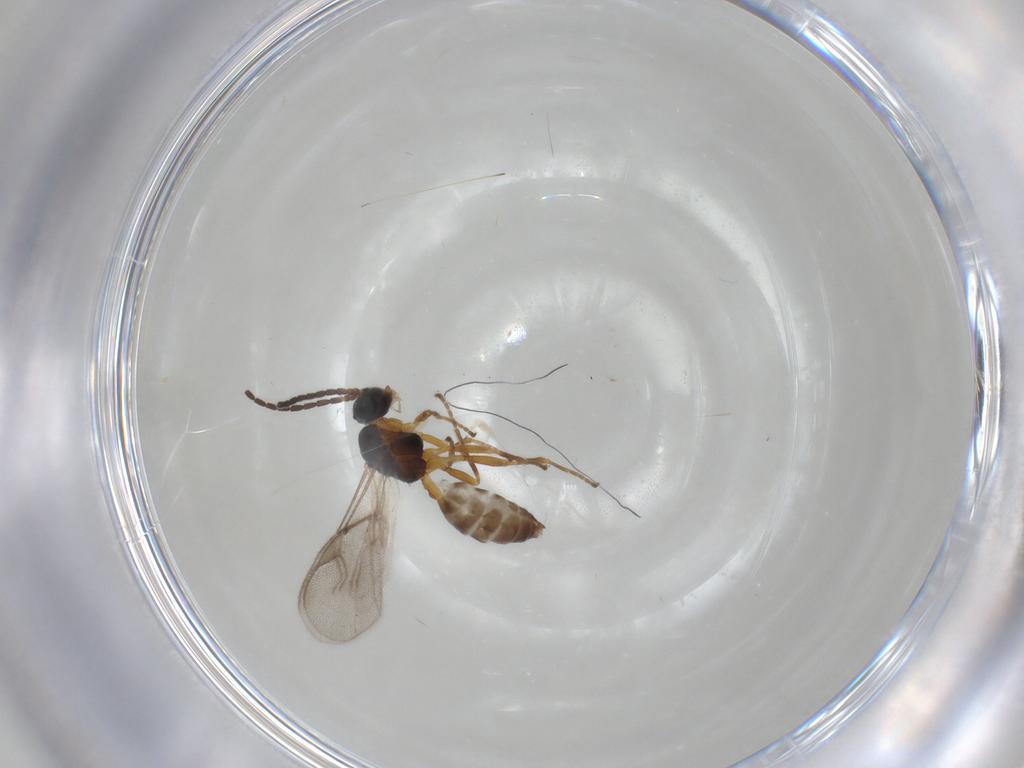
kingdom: Animalia
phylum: Arthropoda
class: Insecta
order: Hymenoptera
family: Braconidae
